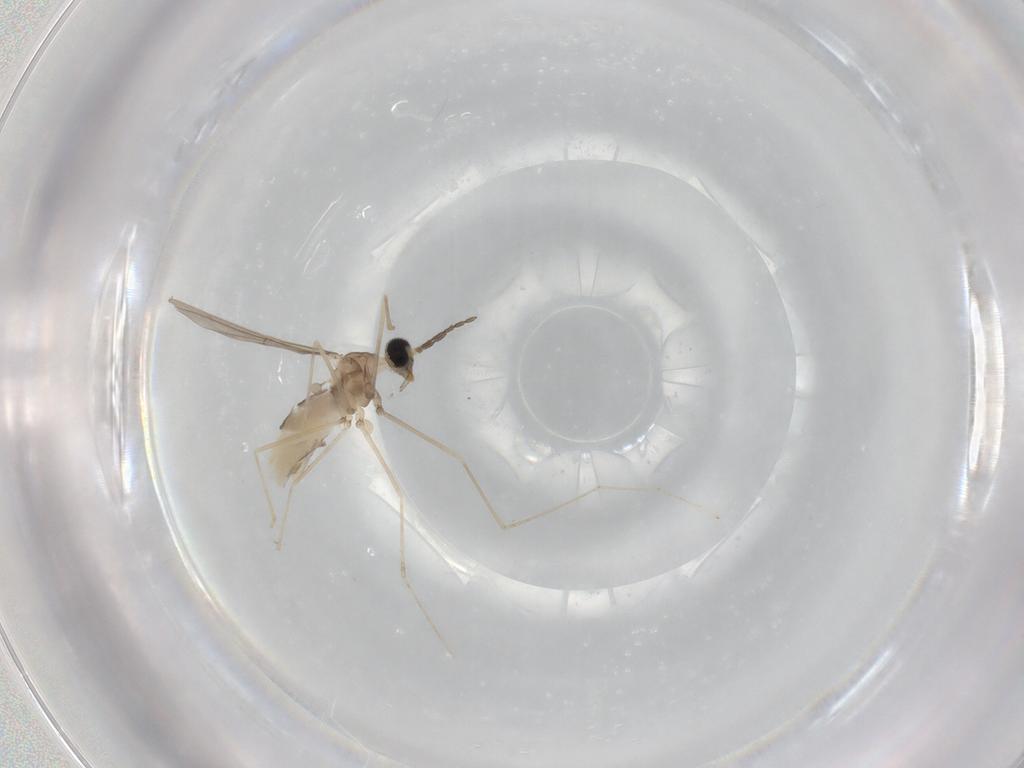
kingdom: Animalia
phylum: Arthropoda
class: Insecta
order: Diptera
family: Cecidomyiidae
